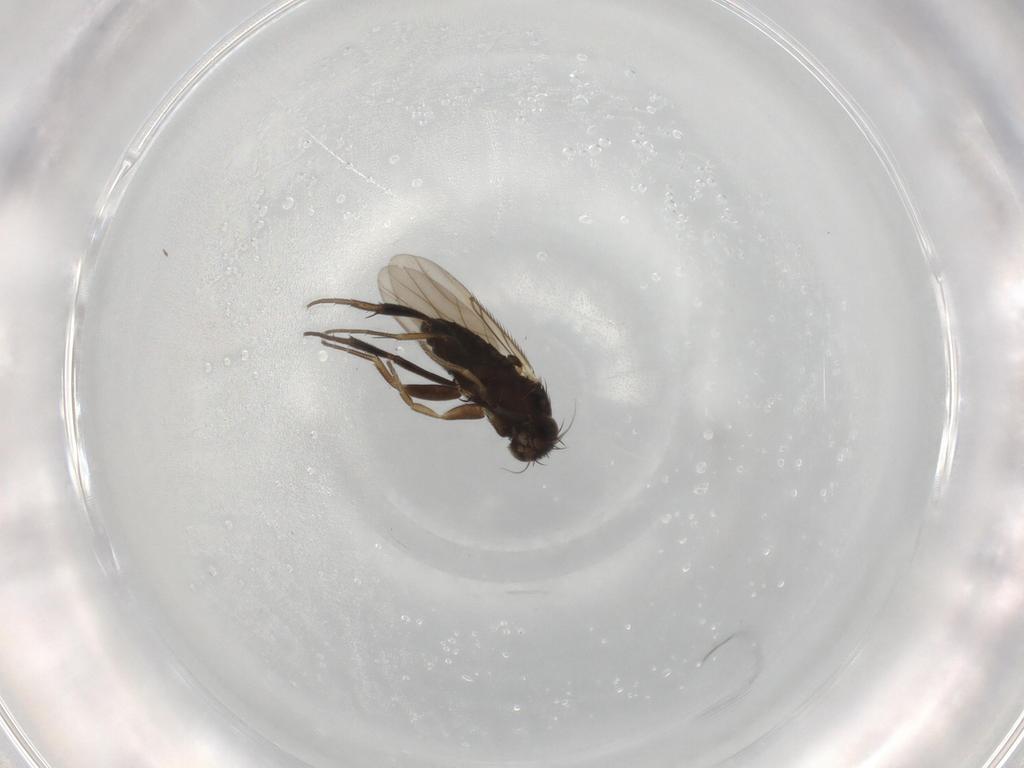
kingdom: Animalia
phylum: Arthropoda
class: Insecta
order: Diptera
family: Phoridae
